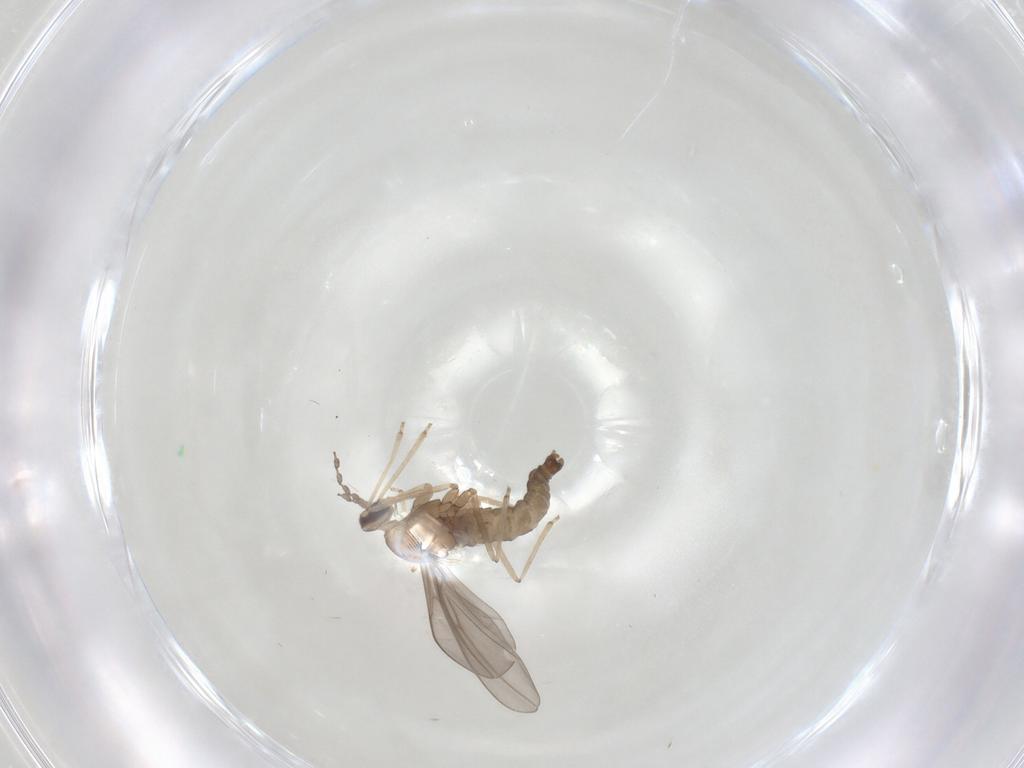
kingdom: Animalia
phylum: Arthropoda
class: Insecta
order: Diptera
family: Cecidomyiidae
